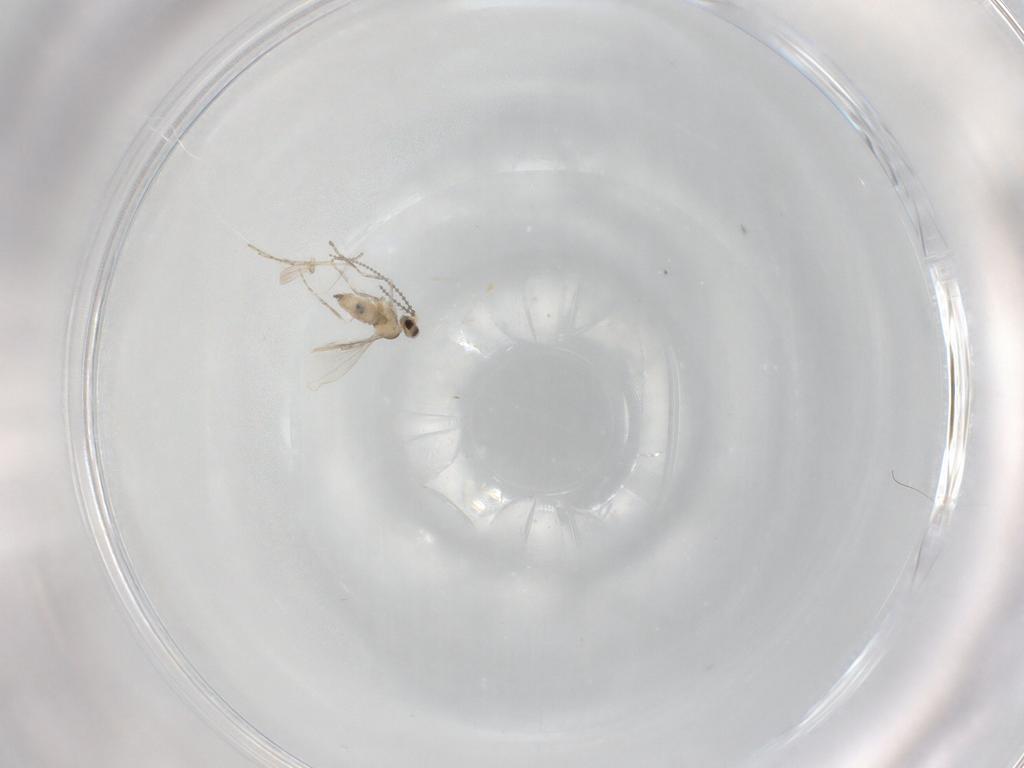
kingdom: Animalia
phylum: Arthropoda
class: Insecta
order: Diptera
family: Cecidomyiidae
